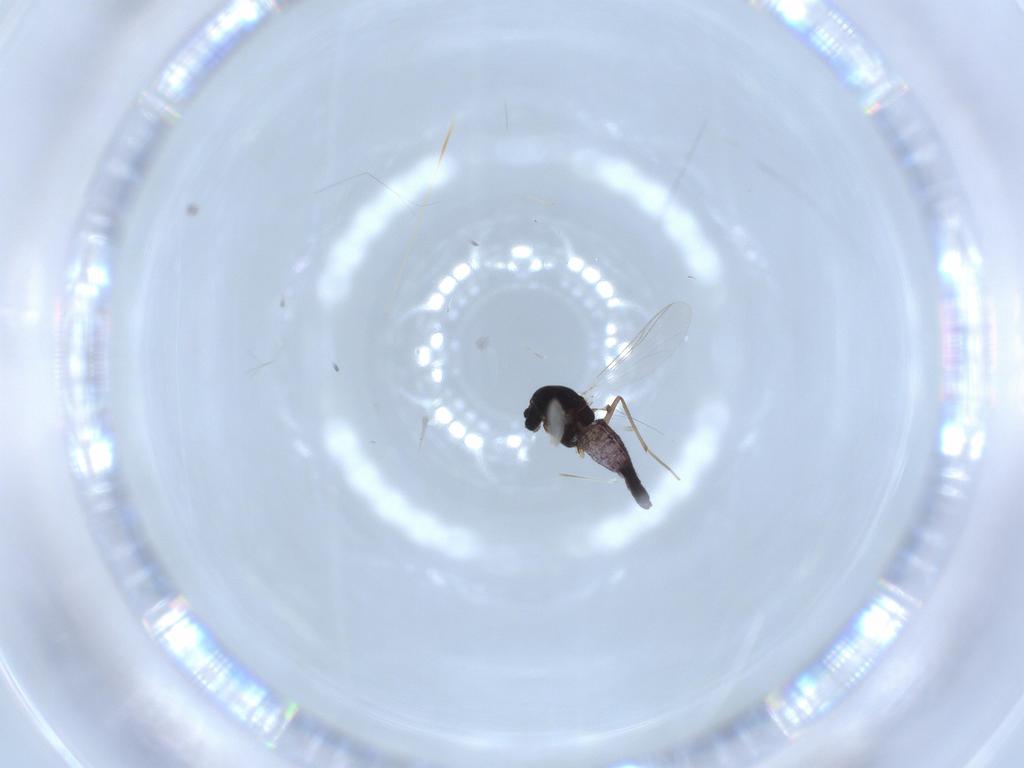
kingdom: Animalia
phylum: Arthropoda
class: Insecta
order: Diptera
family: Chironomidae
